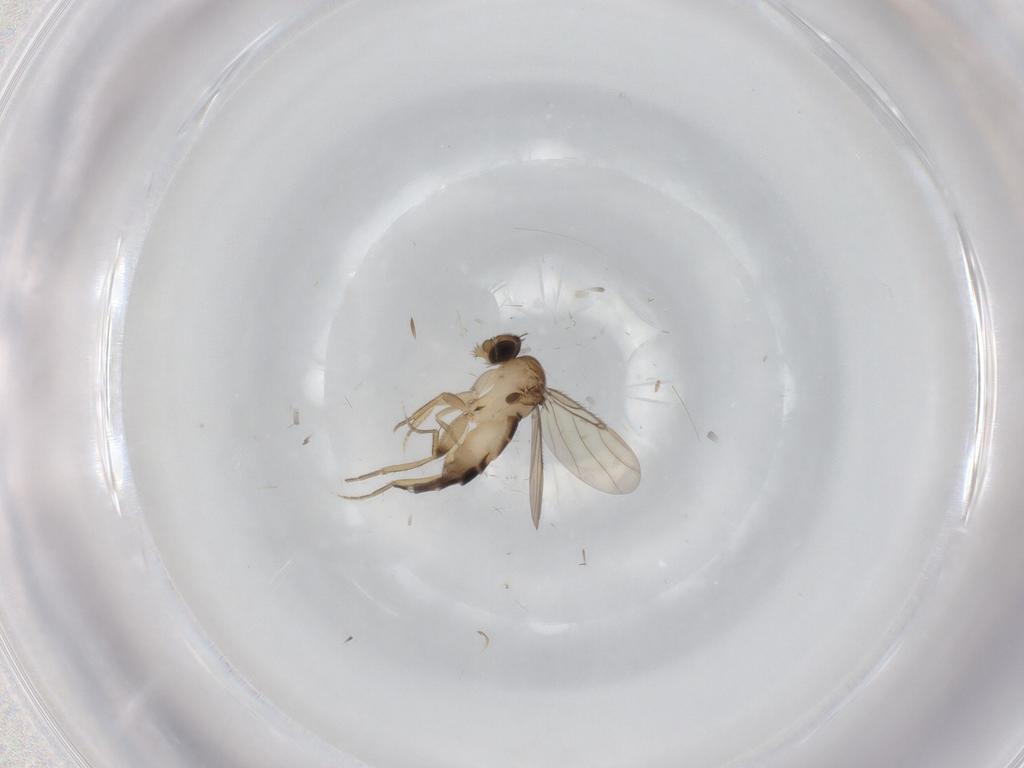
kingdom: Animalia
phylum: Arthropoda
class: Insecta
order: Diptera
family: Phoridae
